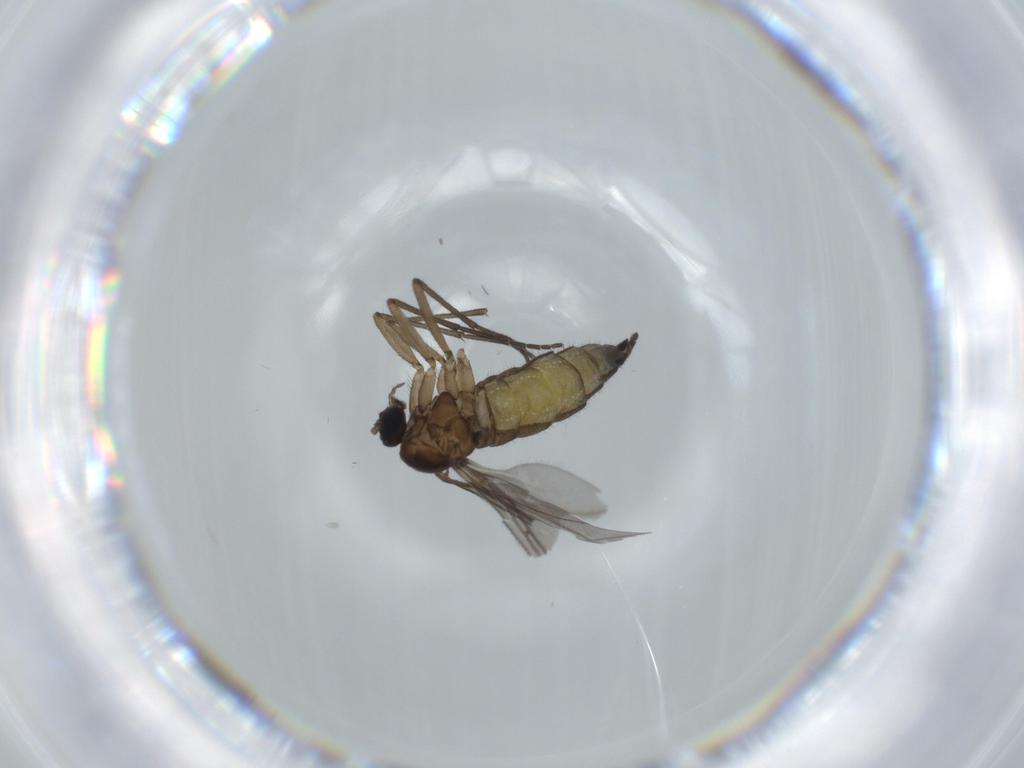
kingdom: Animalia
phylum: Arthropoda
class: Insecta
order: Diptera
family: Sciaridae
